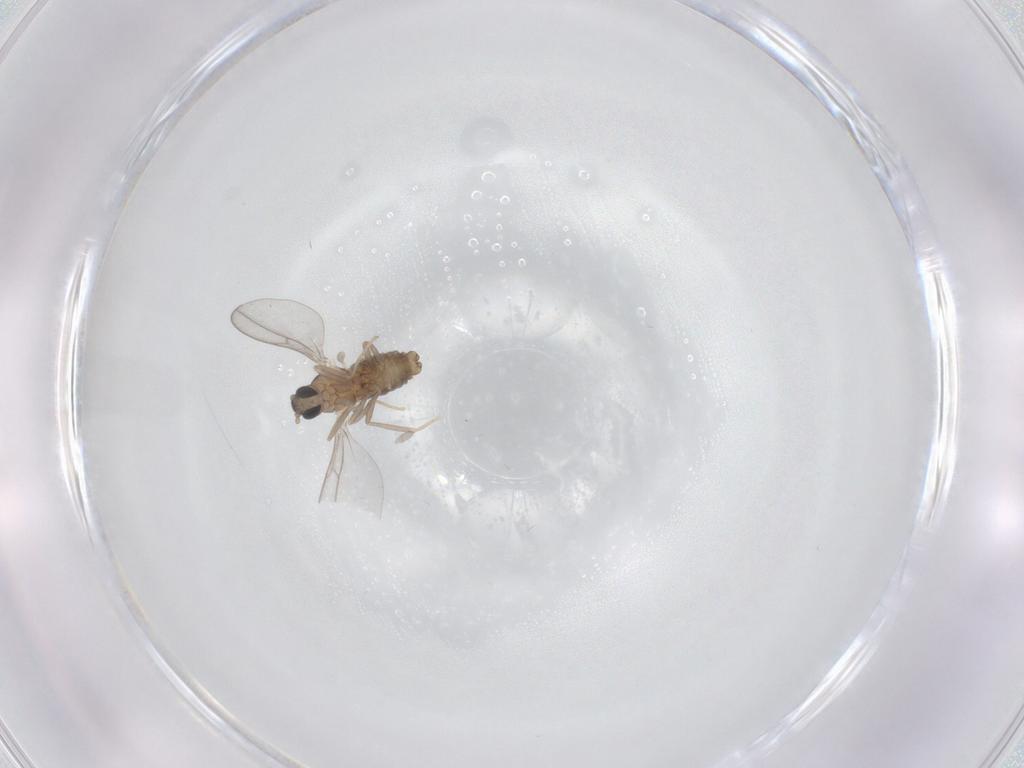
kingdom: Animalia
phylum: Arthropoda
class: Insecta
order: Diptera
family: Cecidomyiidae
